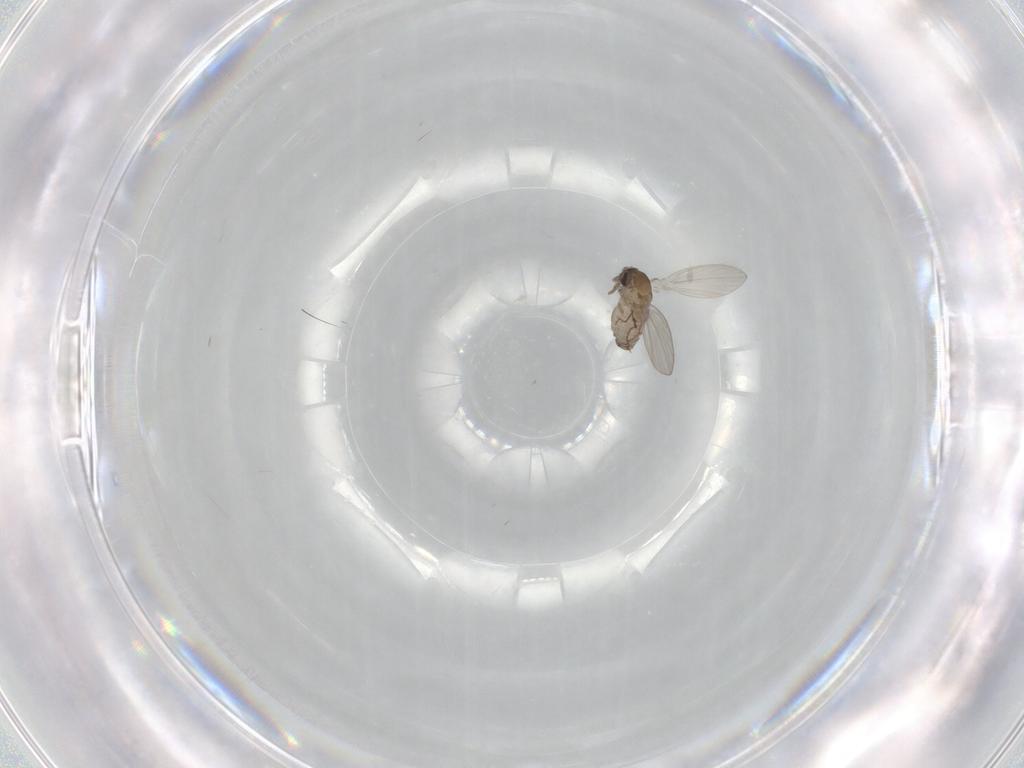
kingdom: Animalia
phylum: Arthropoda
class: Insecta
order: Diptera
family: Psychodidae
